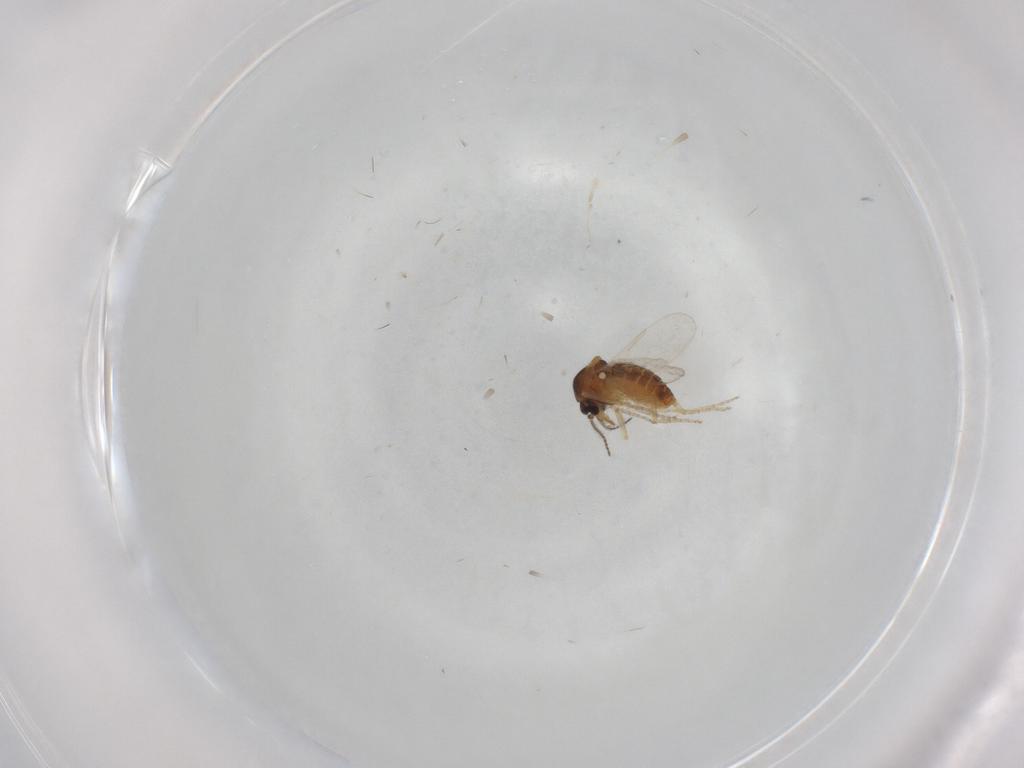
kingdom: Animalia
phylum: Arthropoda
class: Insecta
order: Diptera
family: Ceratopogonidae
